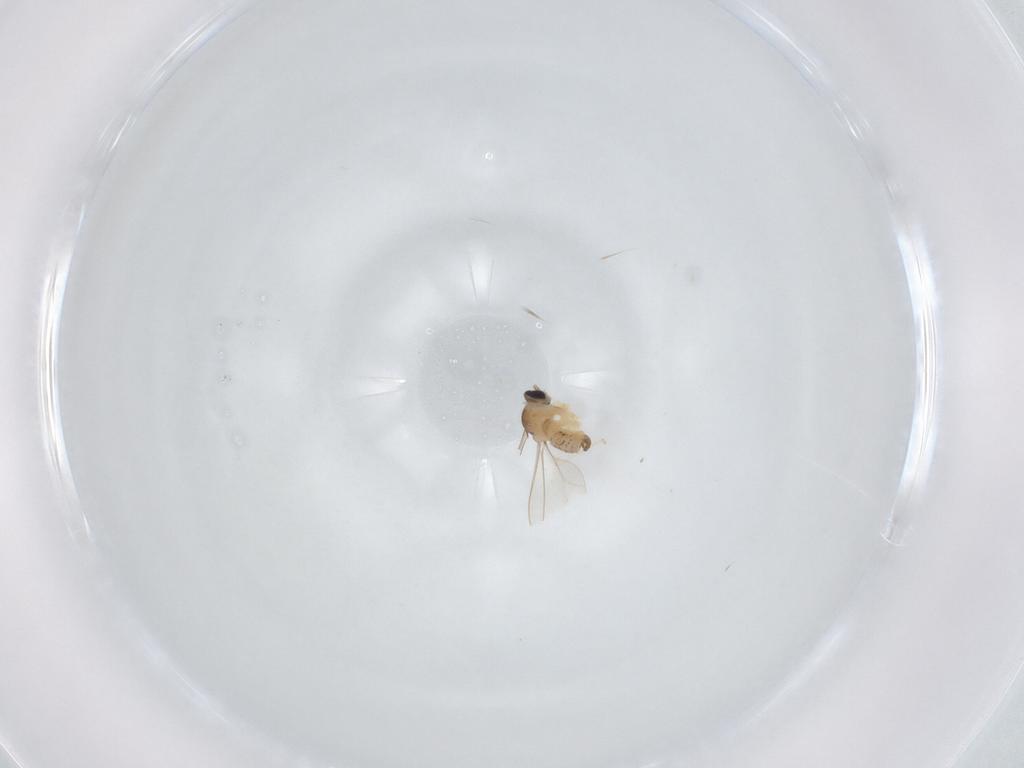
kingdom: Animalia
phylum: Arthropoda
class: Insecta
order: Diptera
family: Cecidomyiidae
